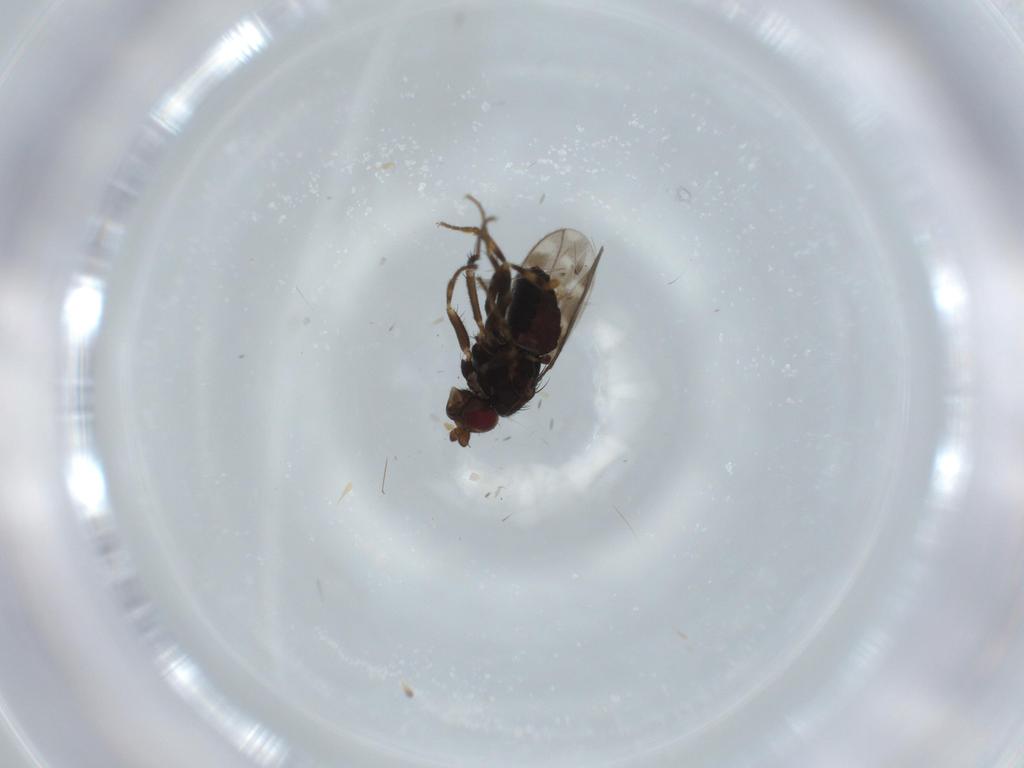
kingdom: Animalia
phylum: Arthropoda
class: Insecta
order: Diptera
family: Sphaeroceridae
